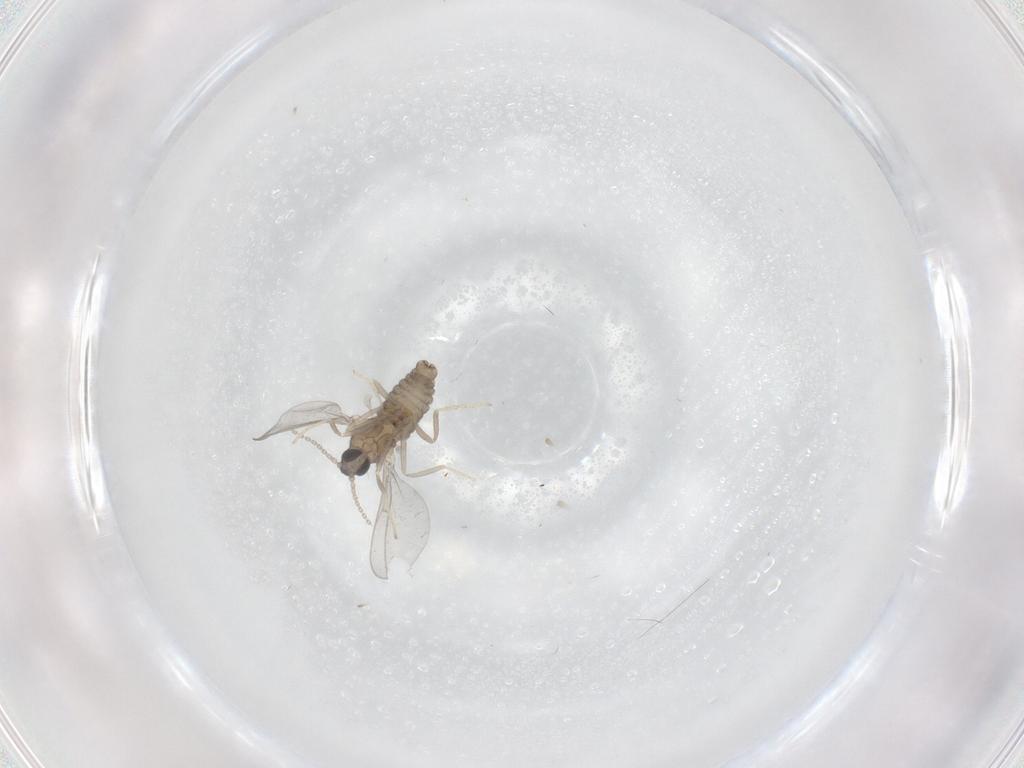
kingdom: Animalia
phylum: Arthropoda
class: Insecta
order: Diptera
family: Cecidomyiidae
